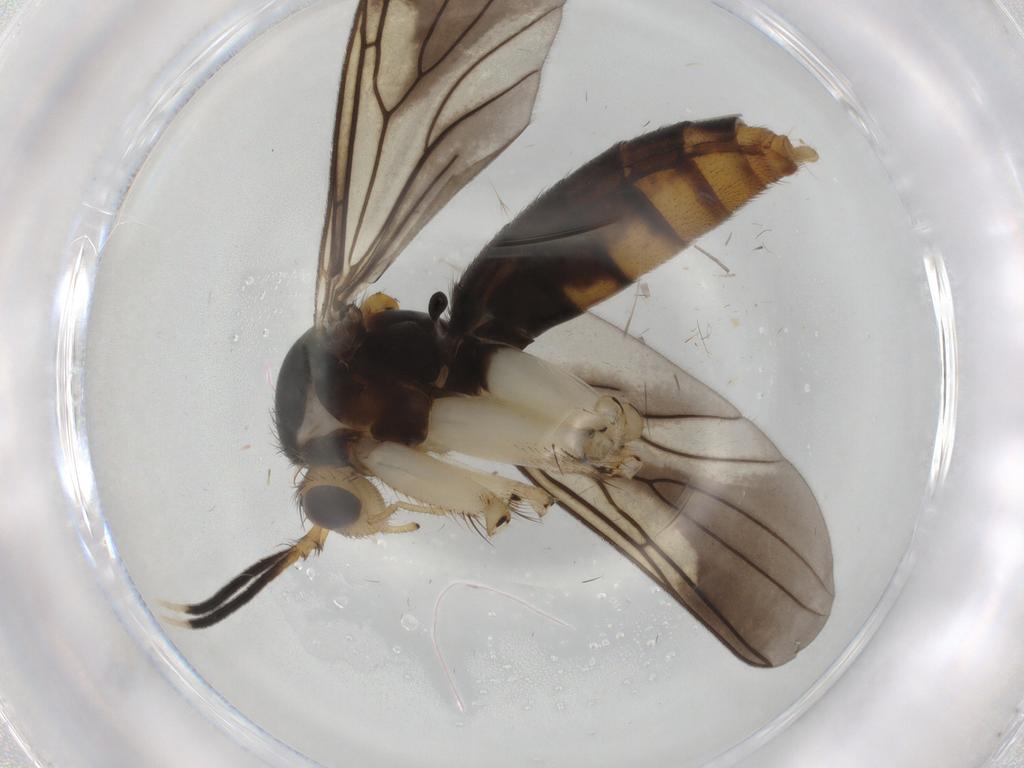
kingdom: Animalia
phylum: Arthropoda
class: Insecta
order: Diptera
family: Mycetophilidae
